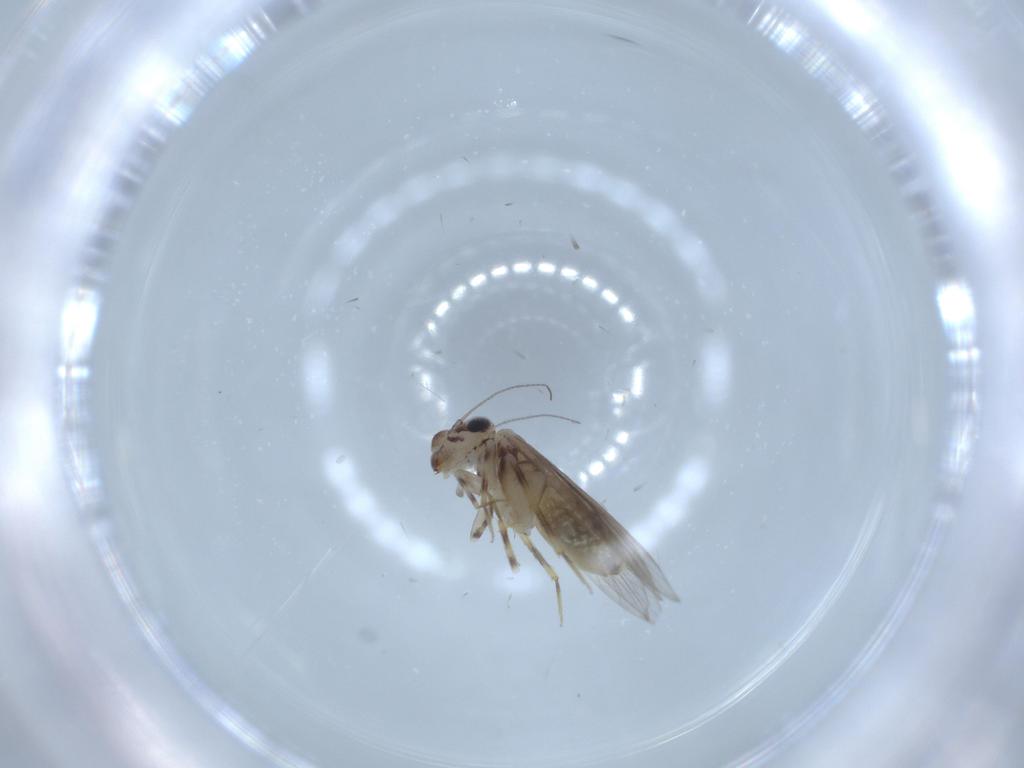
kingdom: Animalia
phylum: Arthropoda
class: Insecta
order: Psocodea
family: Lepidopsocidae
